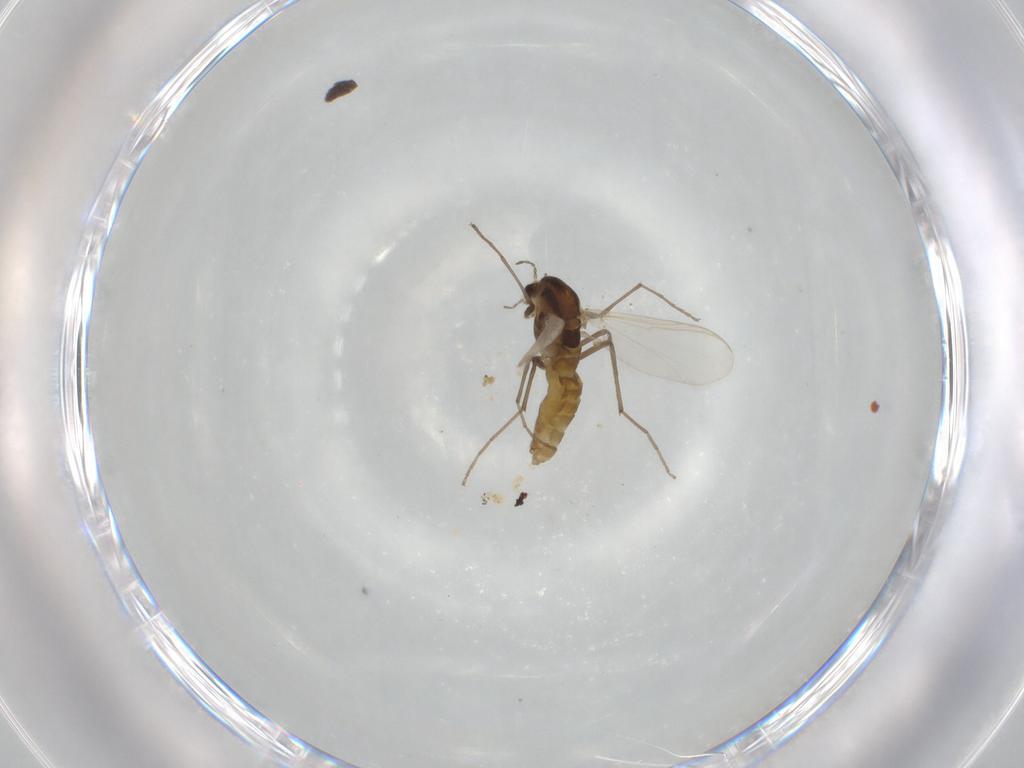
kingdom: Animalia
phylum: Arthropoda
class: Insecta
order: Diptera
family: Chironomidae
